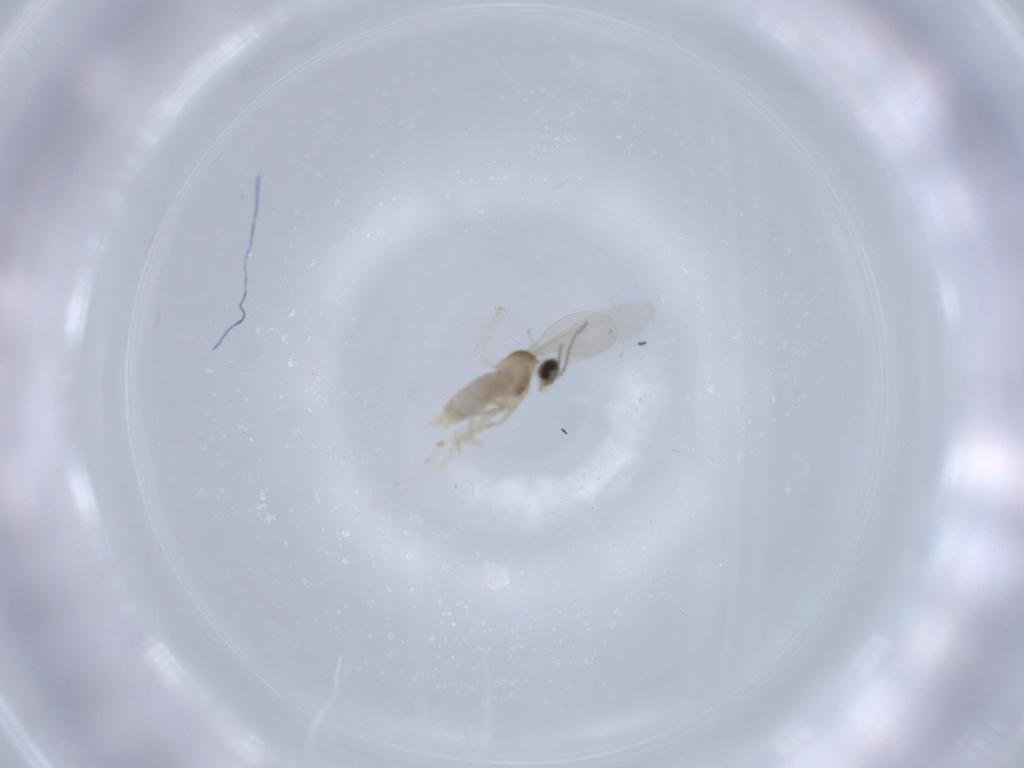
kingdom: Animalia
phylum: Arthropoda
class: Insecta
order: Diptera
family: Cecidomyiidae
